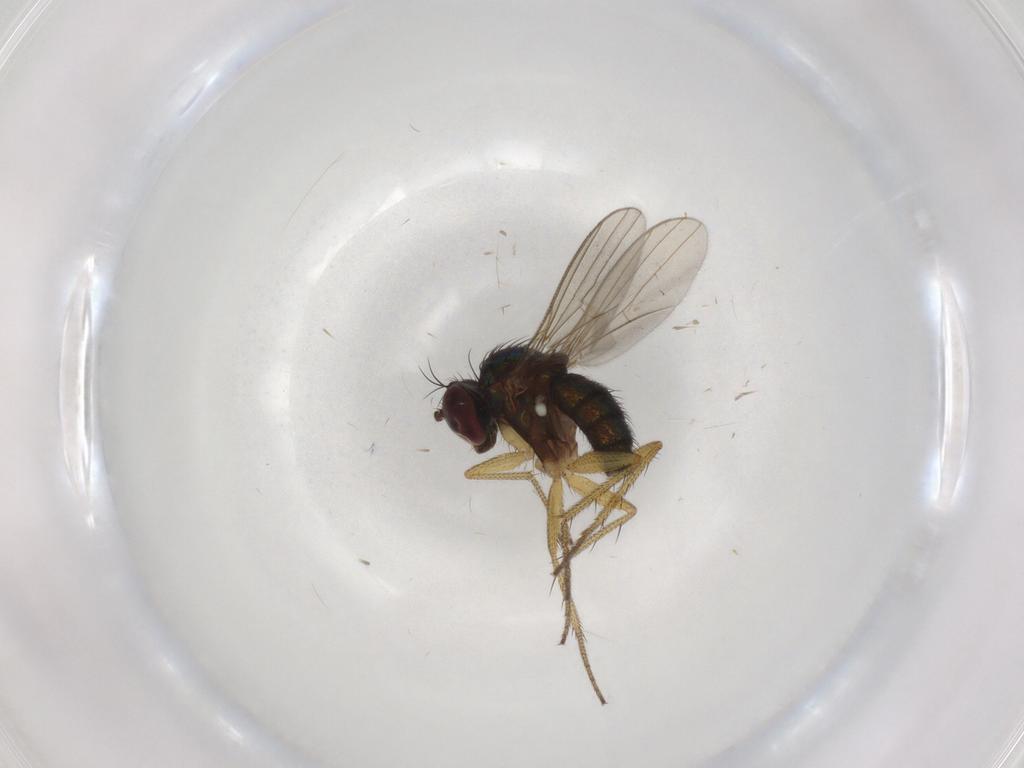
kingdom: Animalia
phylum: Arthropoda
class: Insecta
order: Diptera
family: Dolichopodidae
